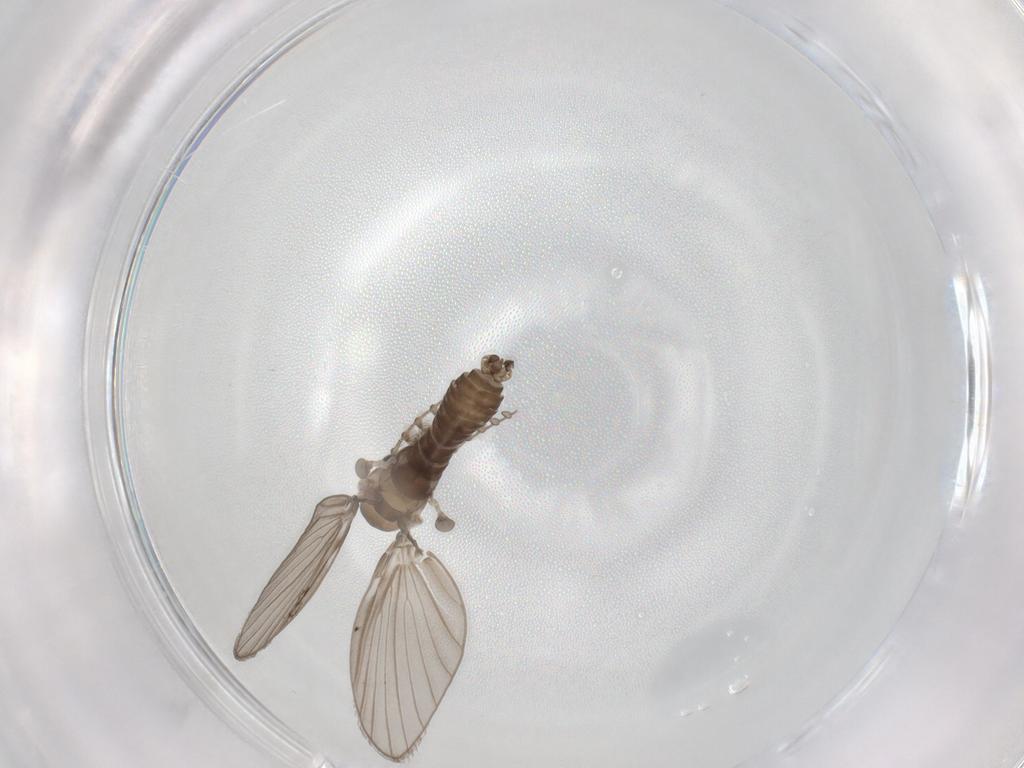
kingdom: Animalia
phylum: Arthropoda
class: Insecta
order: Diptera
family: Psychodidae
